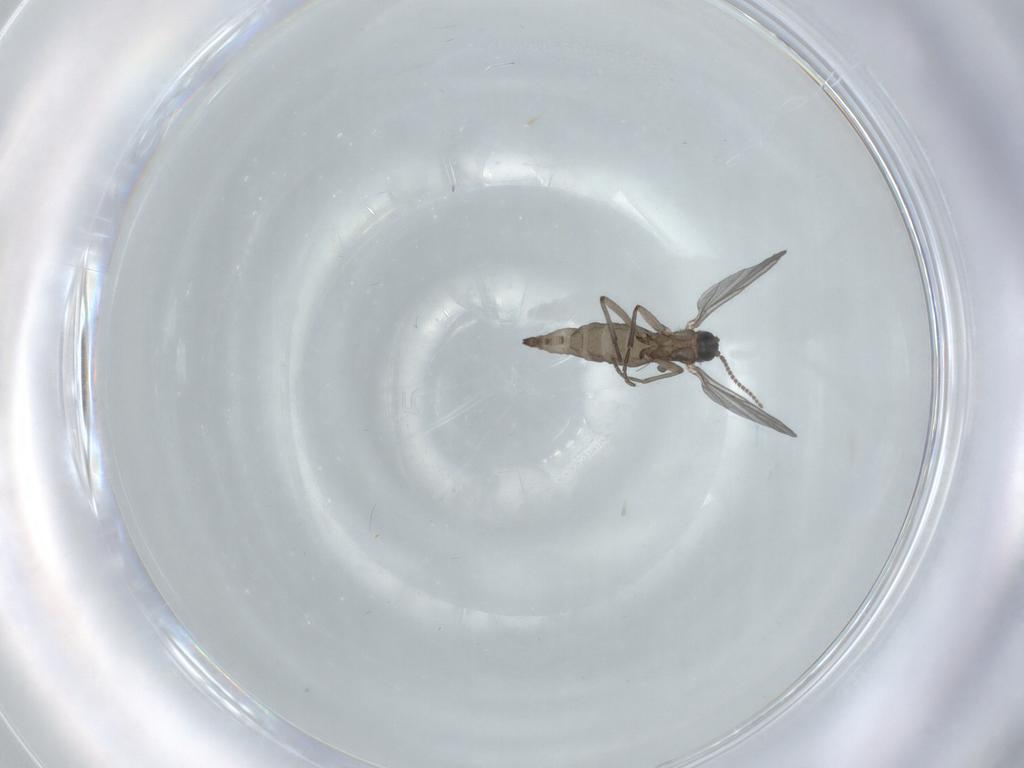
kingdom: Animalia
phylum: Arthropoda
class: Insecta
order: Diptera
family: Sciaridae
